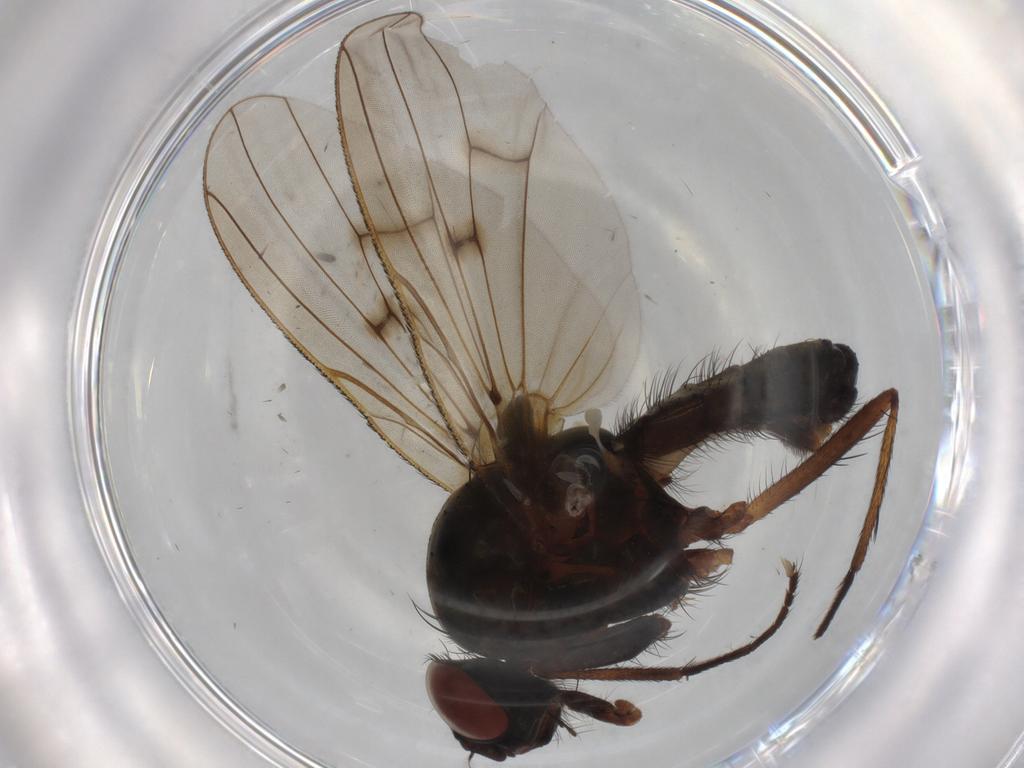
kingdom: Animalia
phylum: Arthropoda
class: Insecta
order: Diptera
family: Anthomyiidae
